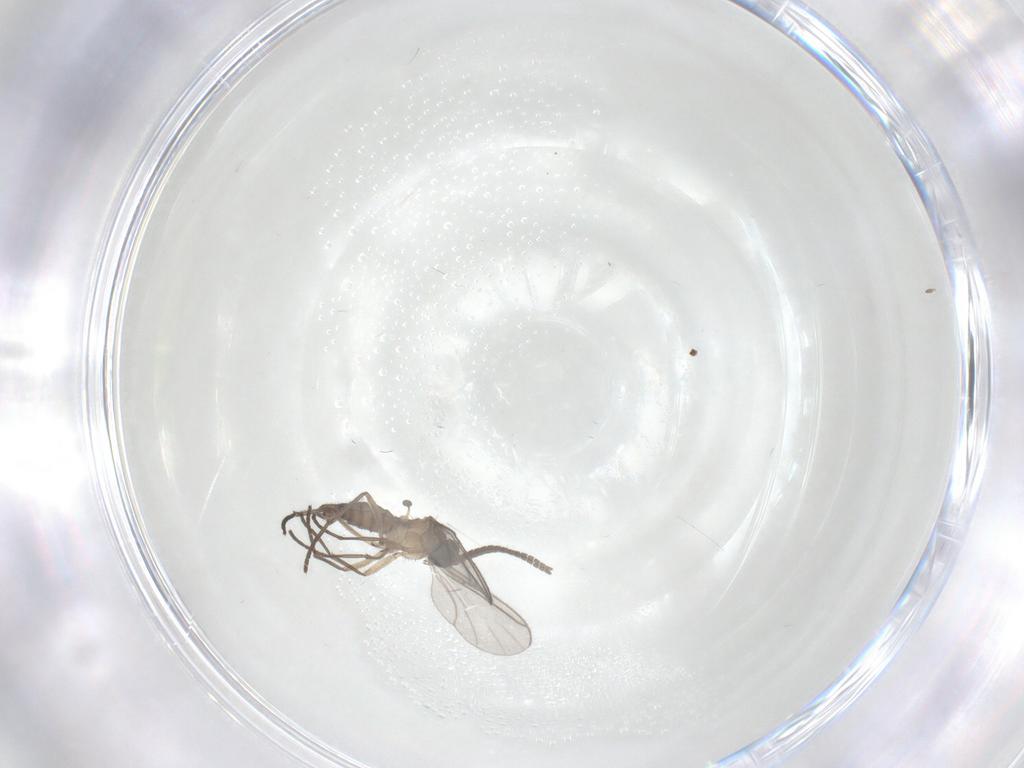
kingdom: Animalia
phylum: Arthropoda
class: Insecta
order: Diptera
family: Sciaridae
